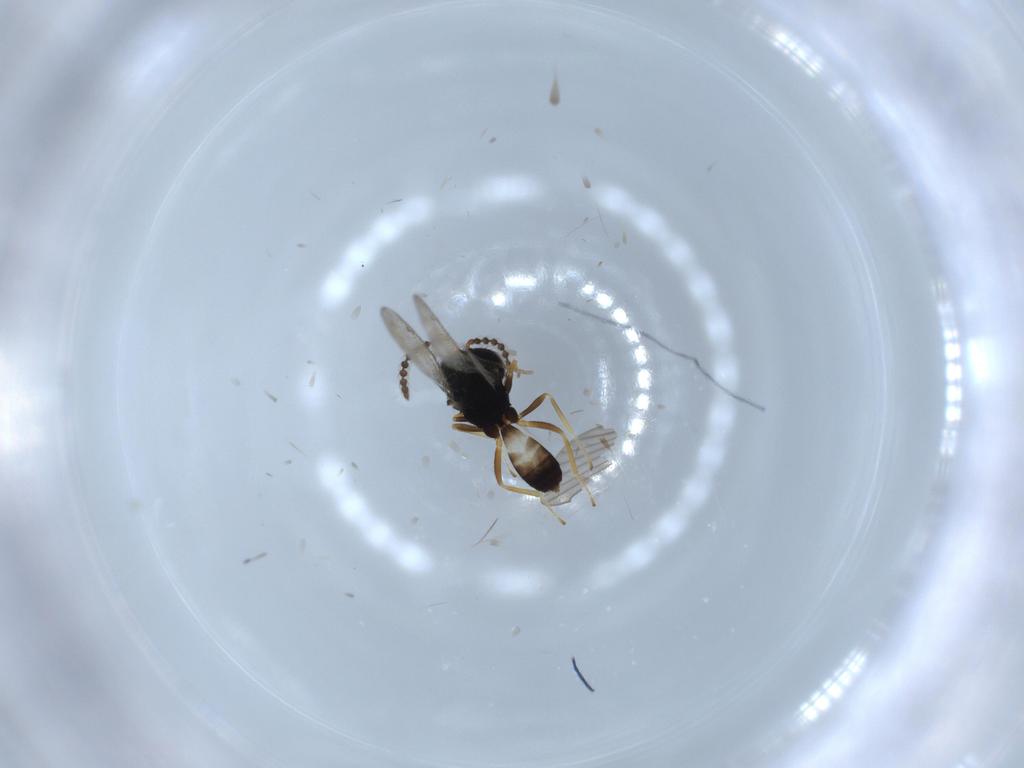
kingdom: Animalia
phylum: Arthropoda
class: Insecta
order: Hymenoptera
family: Pteromalidae
